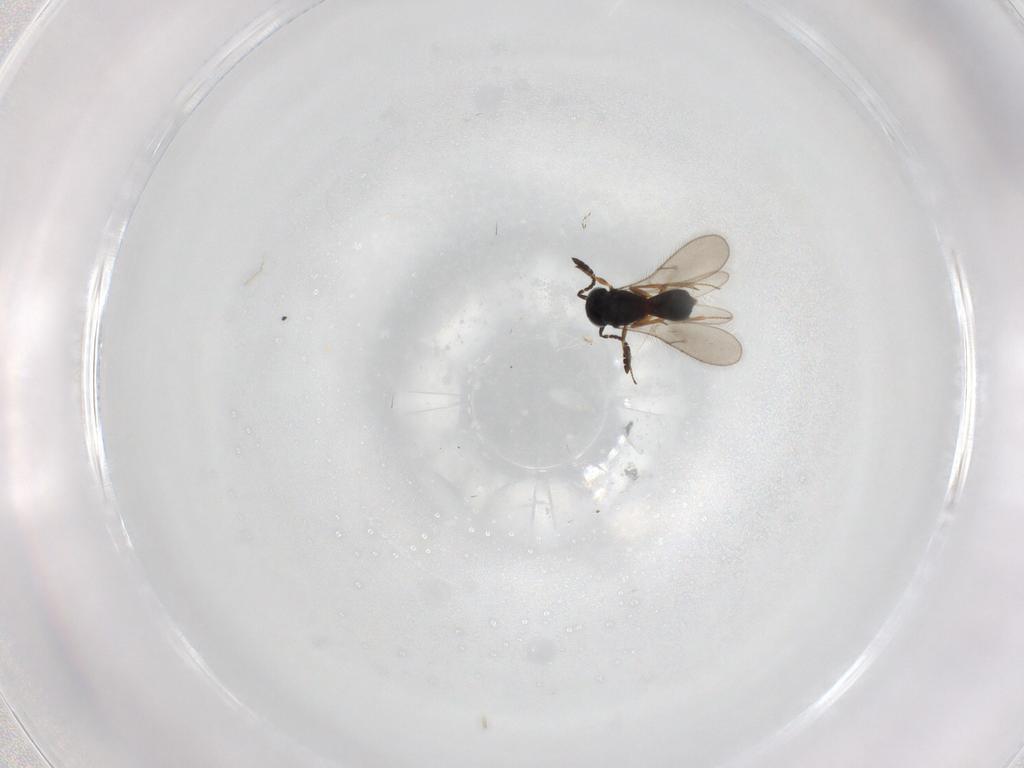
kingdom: Animalia
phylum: Arthropoda
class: Insecta
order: Hymenoptera
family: Scelionidae
